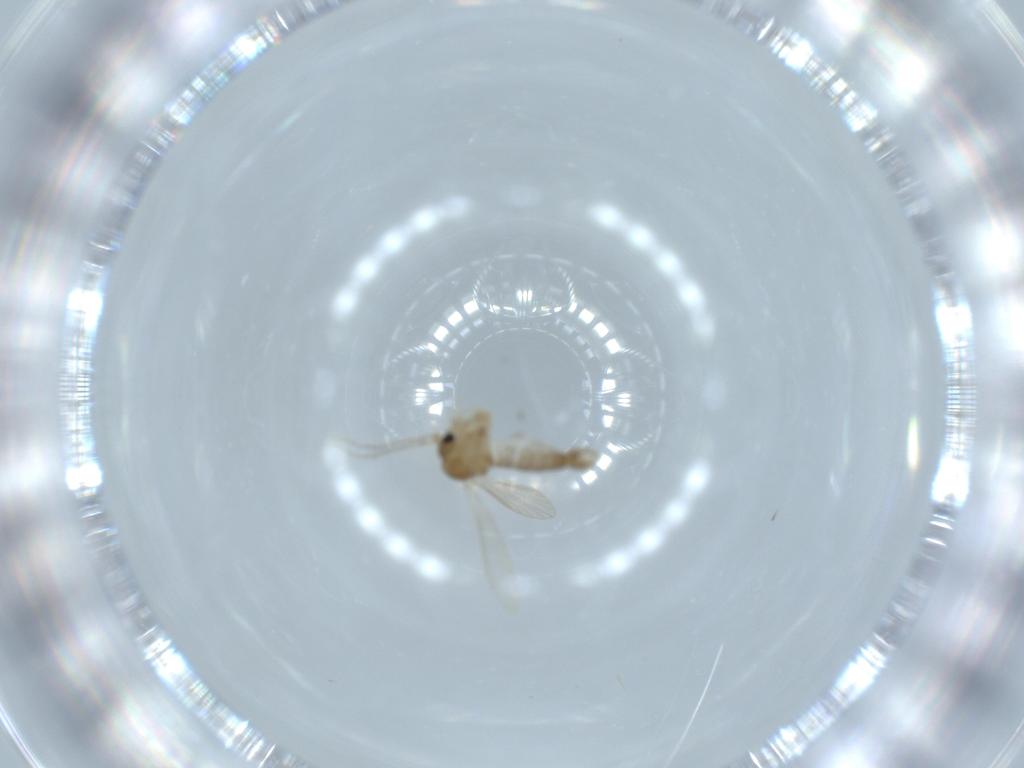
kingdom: Animalia
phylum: Arthropoda
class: Insecta
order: Diptera
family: Psychodidae
